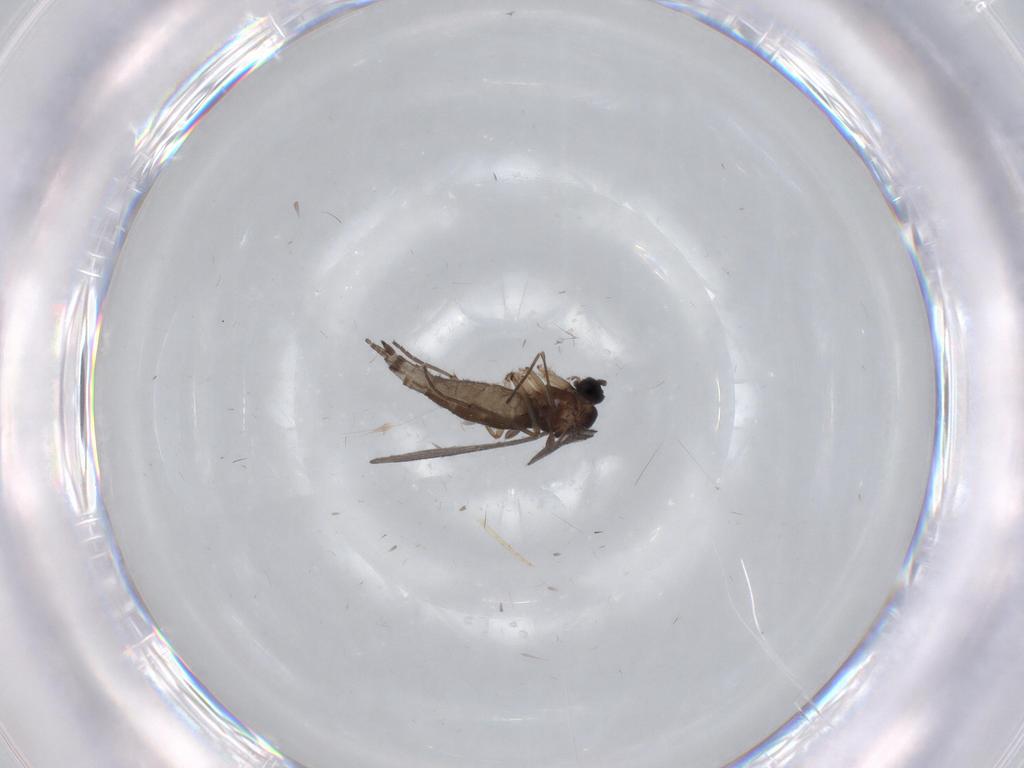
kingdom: Animalia
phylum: Arthropoda
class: Insecta
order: Diptera
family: Sciaridae
